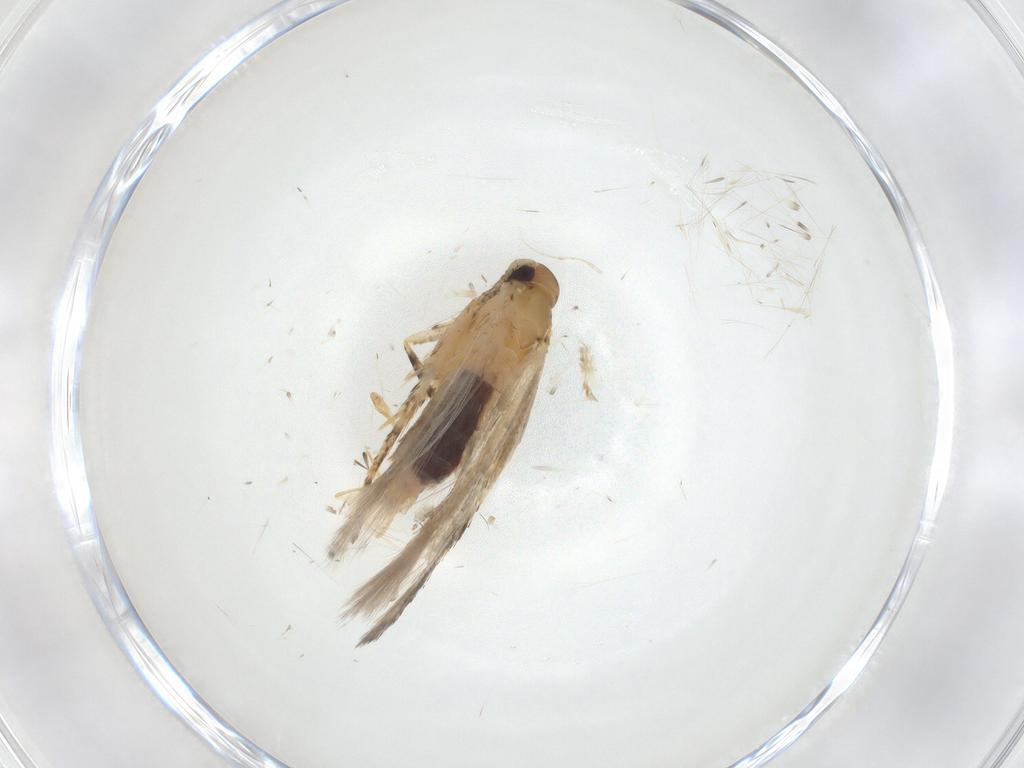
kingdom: Animalia
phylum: Arthropoda
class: Insecta
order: Lepidoptera
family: Gelechiidae
